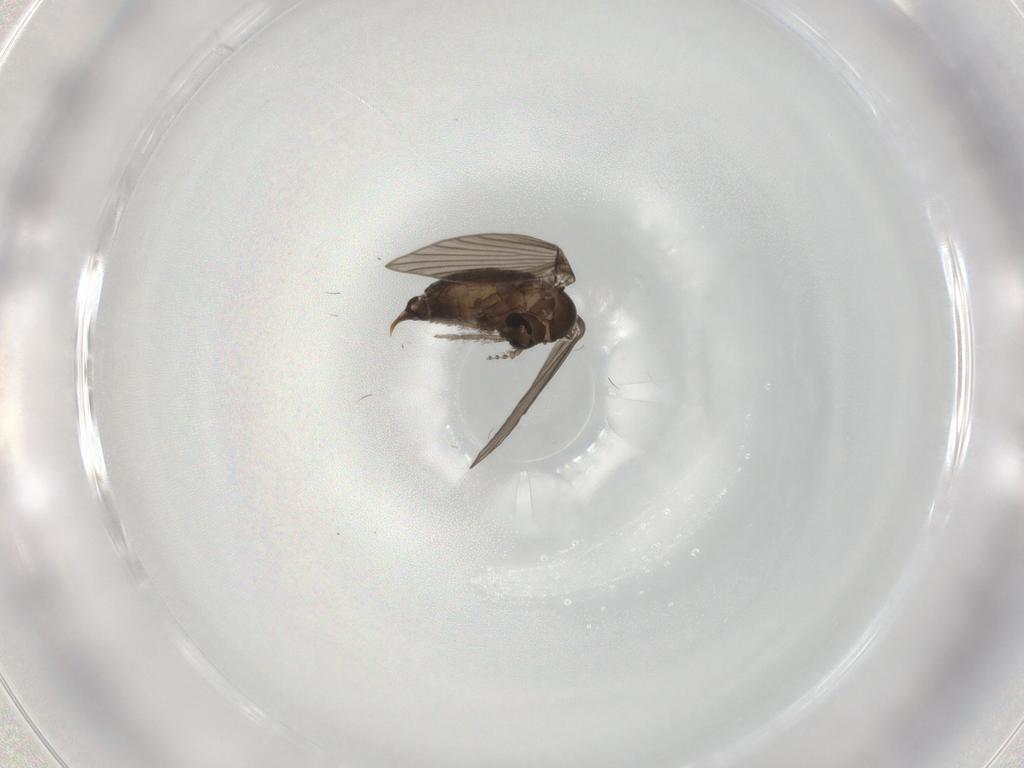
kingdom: Animalia
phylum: Arthropoda
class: Insecta
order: Diptera
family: Psychodidae
